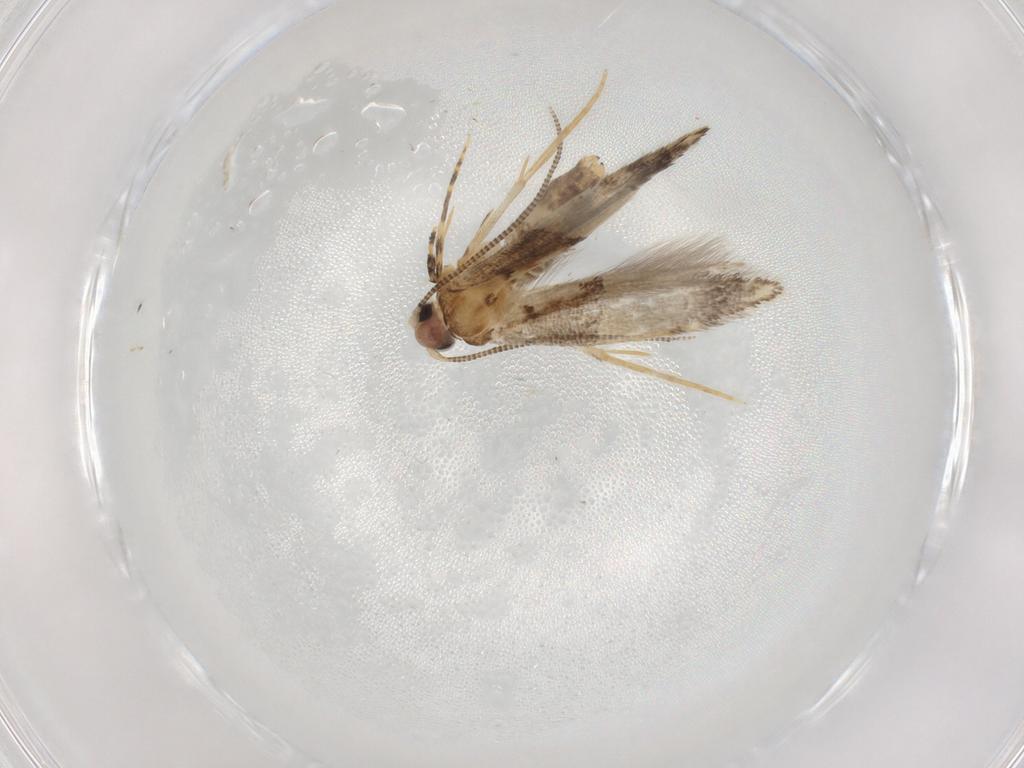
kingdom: Animalia
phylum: Arthropoda
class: Insecta
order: Lepidoptera
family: Tineidae
